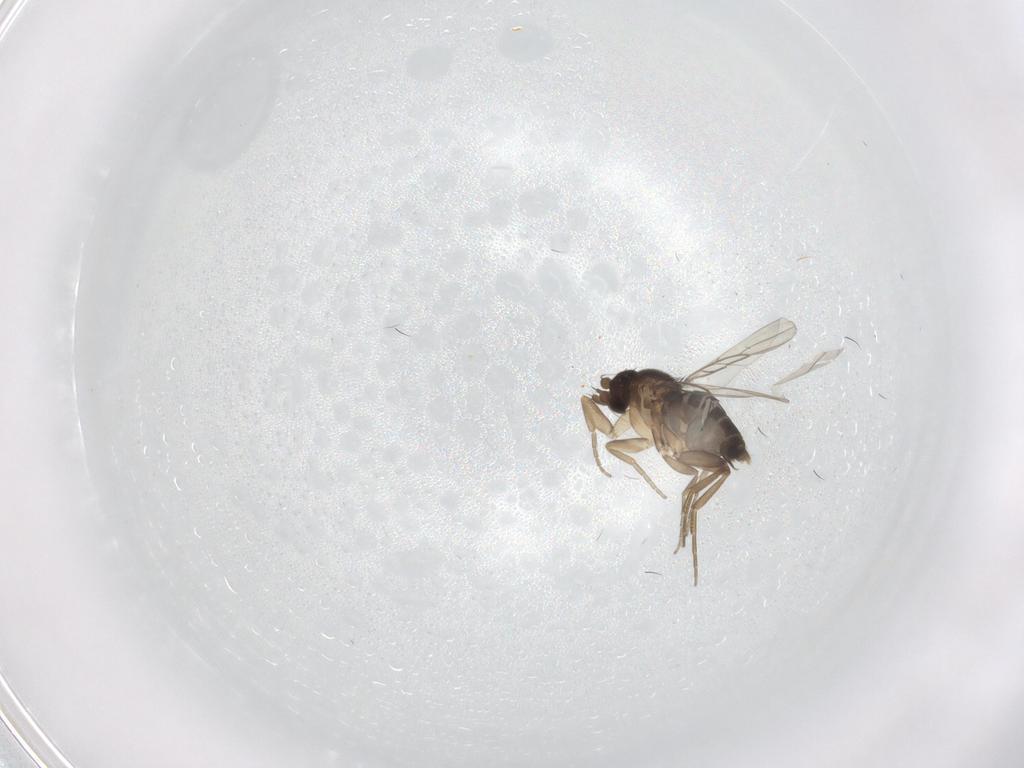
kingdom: Animalia
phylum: Arthropoda
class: Insecta
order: Diptera
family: Phoridae
